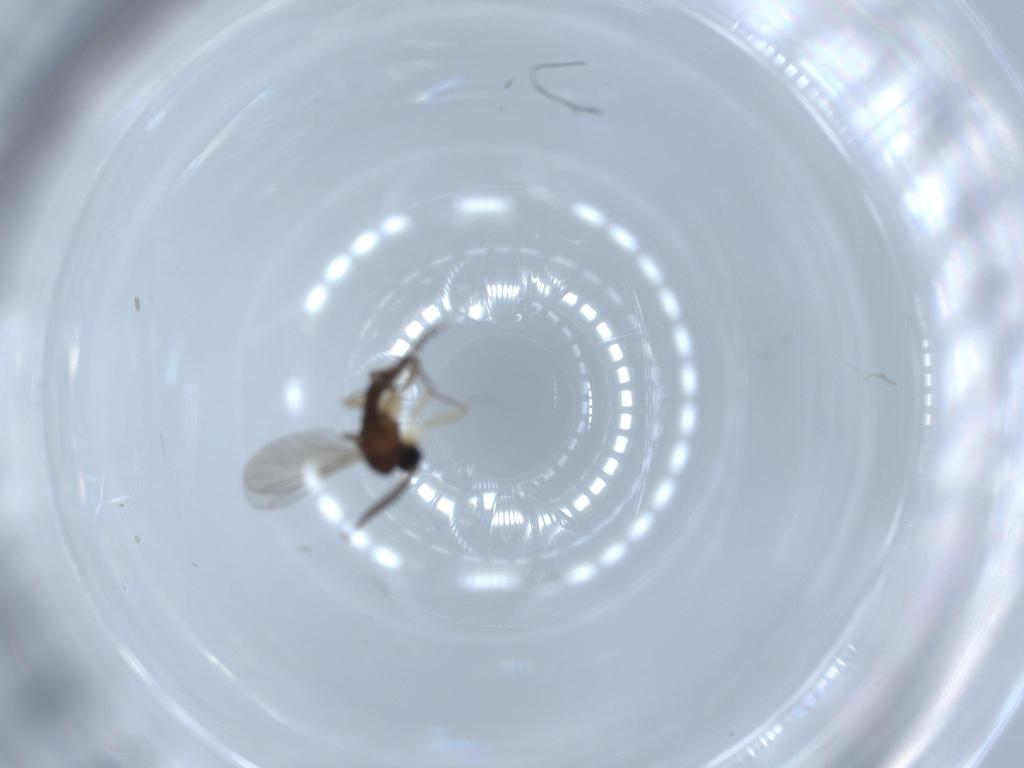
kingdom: Animalia
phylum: Arthropoda
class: Insecta
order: Diptera
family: Sciaridae
